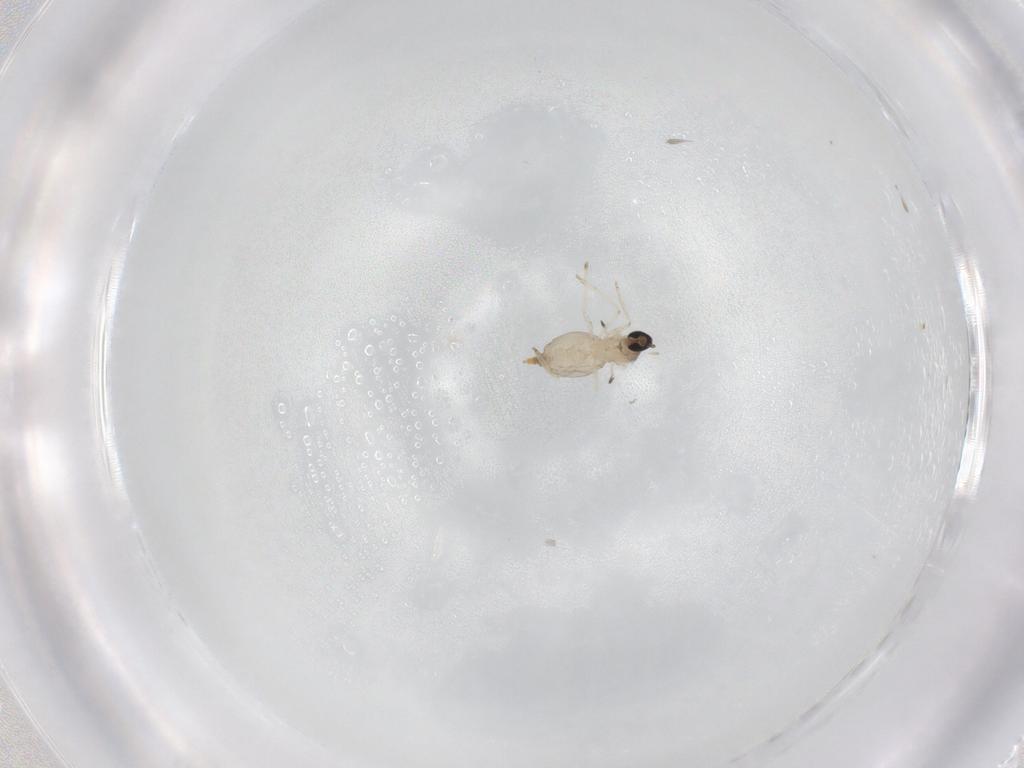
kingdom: Animalia
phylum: Arthropoda
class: Insecta
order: Diptera
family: Cecidomyiidae
